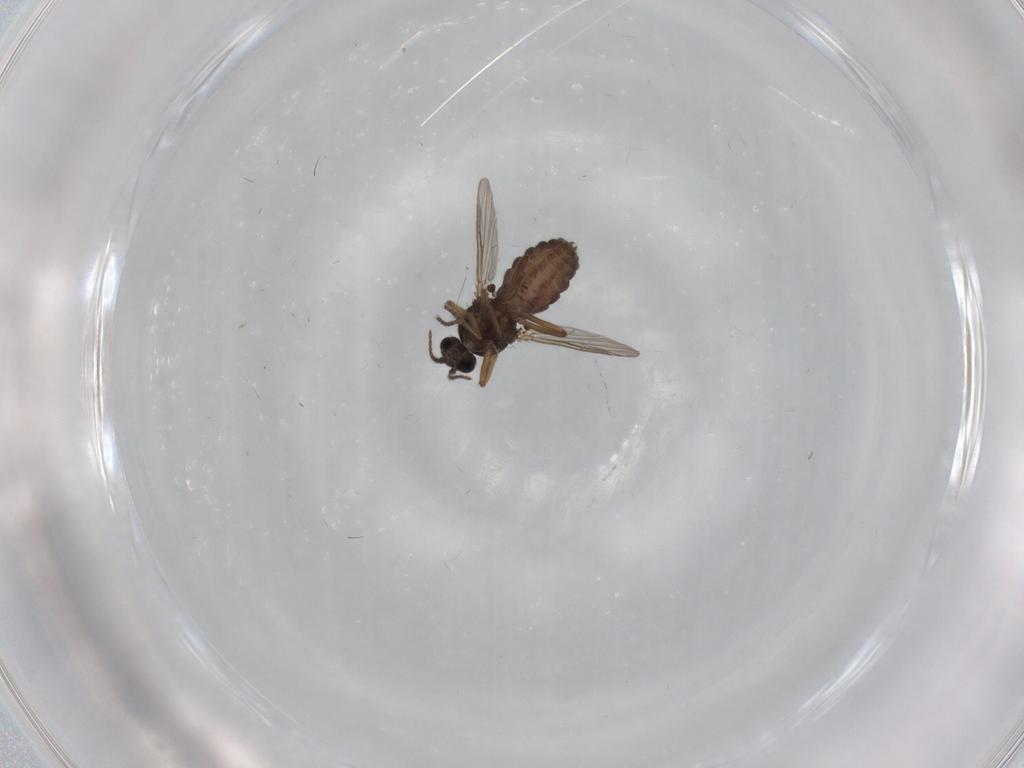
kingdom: Animalia
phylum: Arthropoda
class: Insecta
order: Diptera
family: Ceratopogonidae
